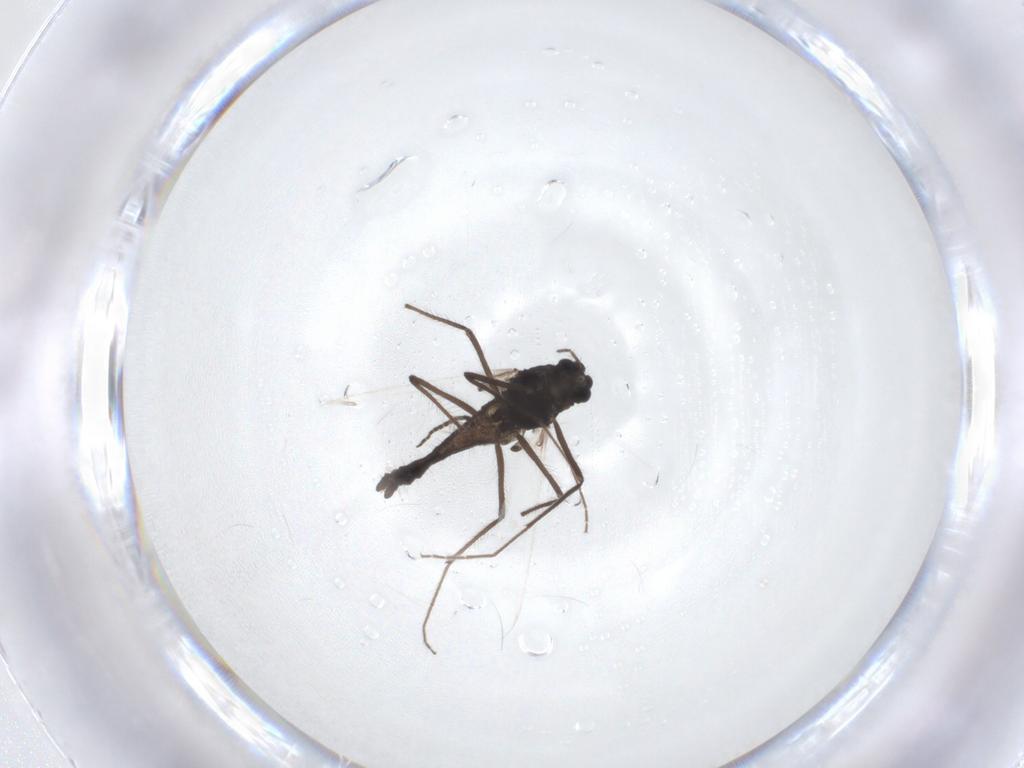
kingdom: Animalia
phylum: Arthropoda
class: Insecta
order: Diptera
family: Sciaridae
